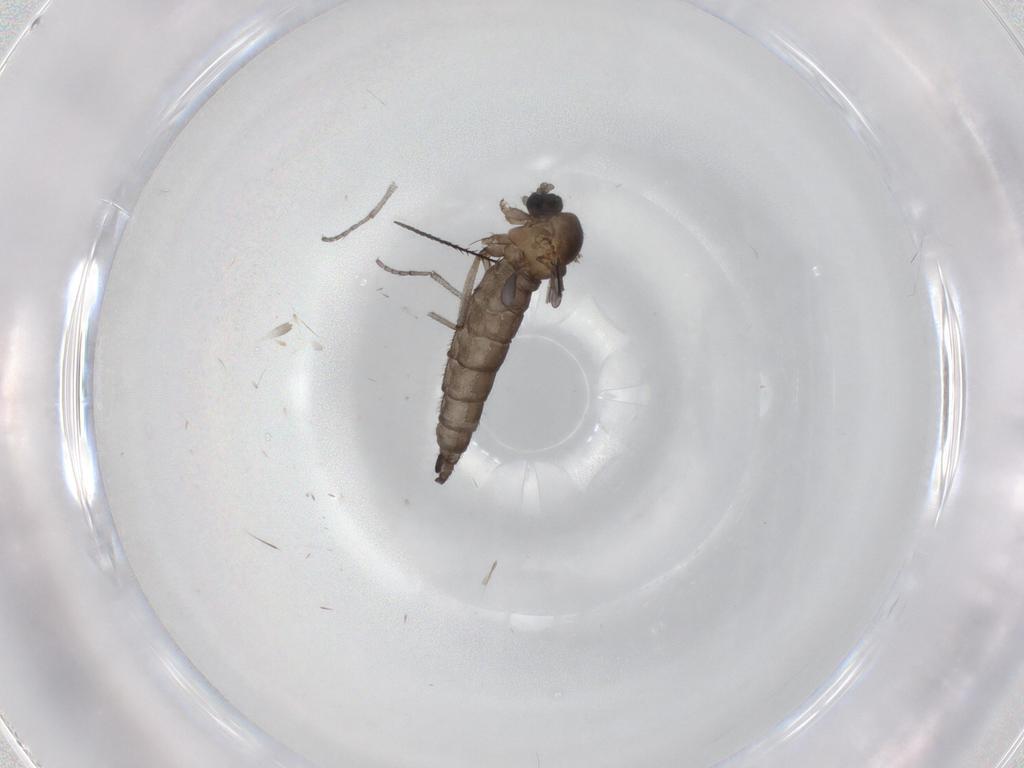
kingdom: Animalia
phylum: Arthropoda
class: Insecta
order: Diptera
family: Sciaridae
